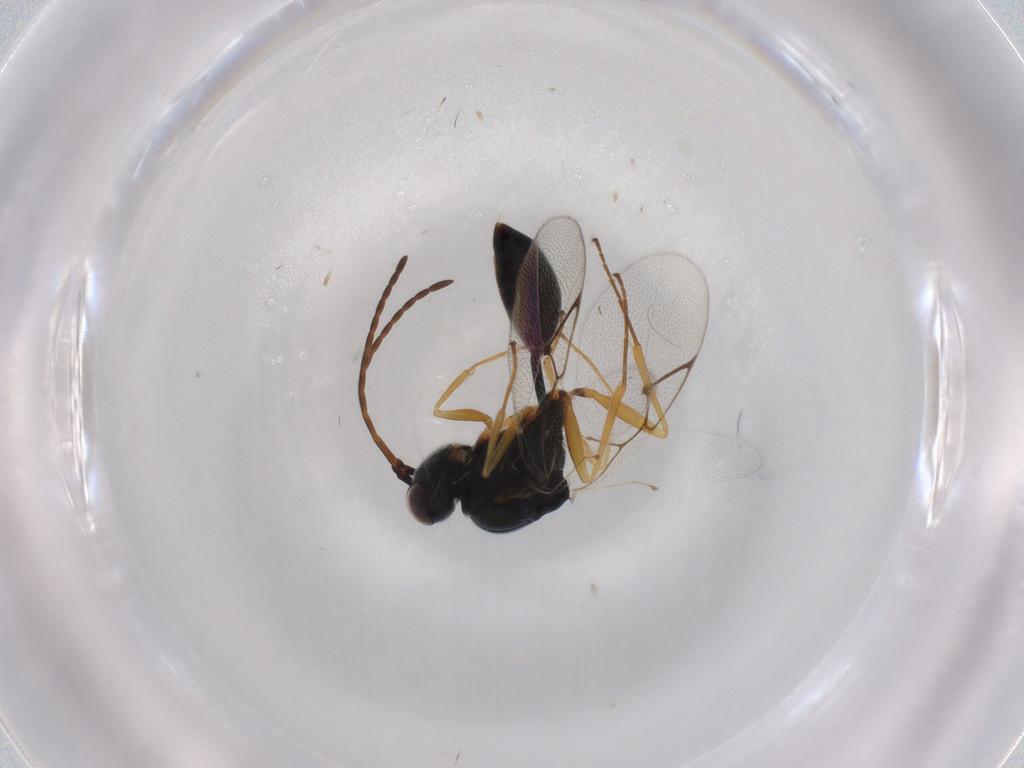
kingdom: Animalia
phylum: Arthropoda
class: Insecta
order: Hymenoptera
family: Figitidae
